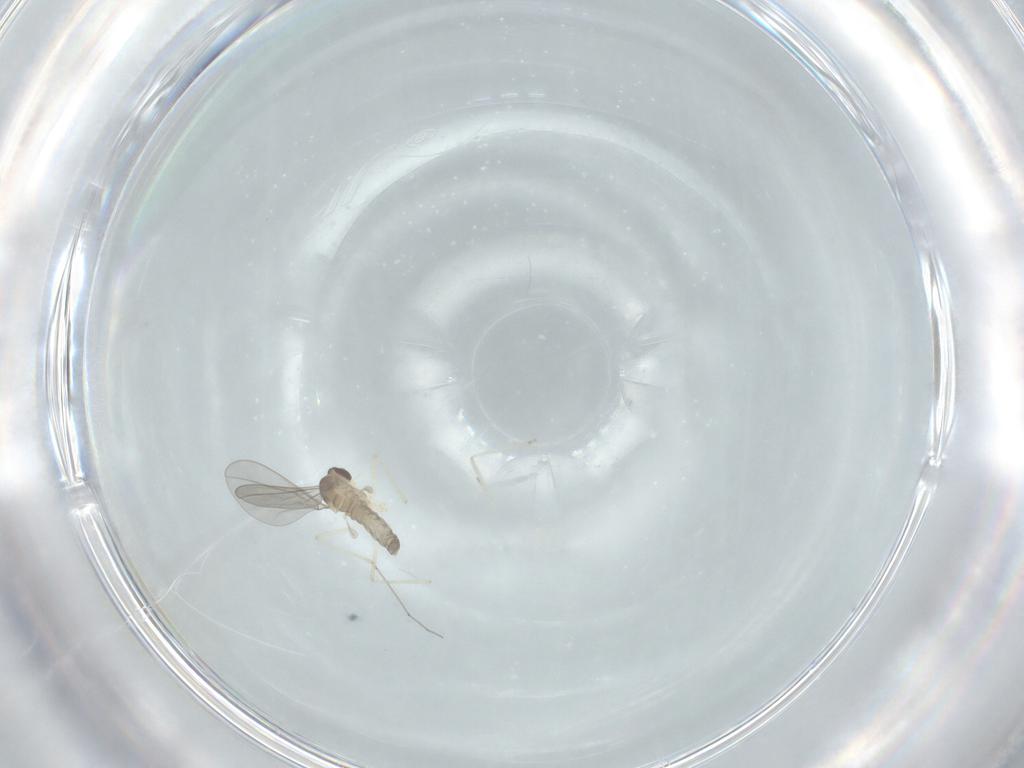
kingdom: Animalia
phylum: Arthropoda
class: Insecta
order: Diptera
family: Cecidomyiidae
